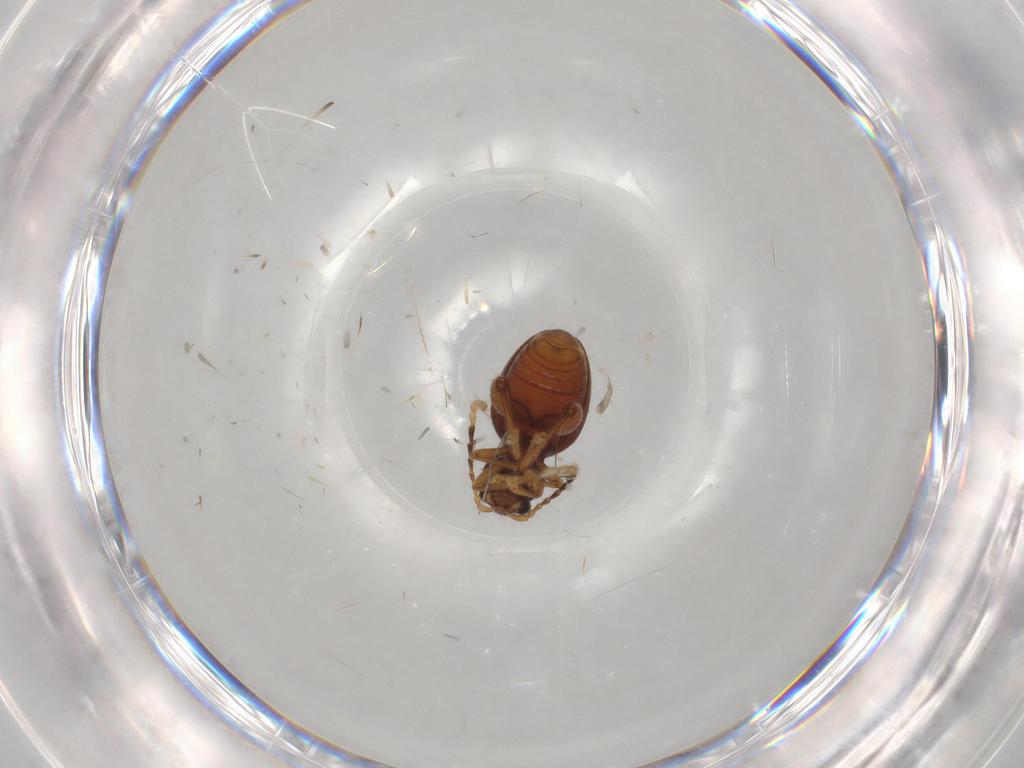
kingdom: Animalia
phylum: Arthropoda
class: Insecta
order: Coleoptera
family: Chrysomelidae
